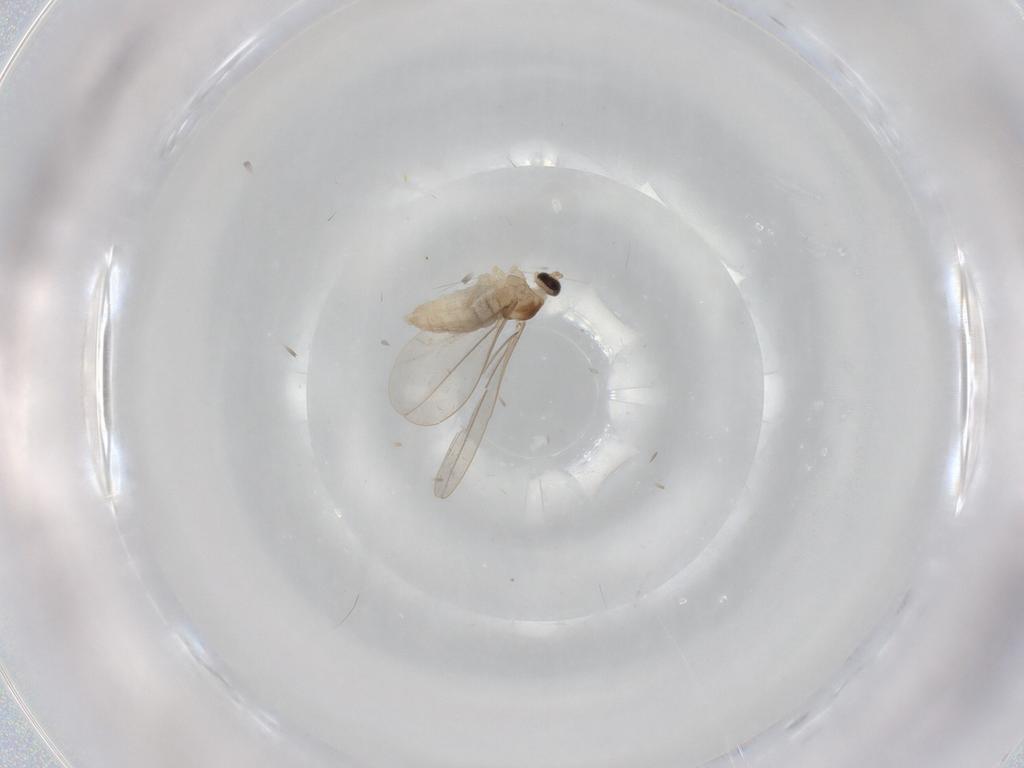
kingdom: Animalia
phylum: Arthropoda
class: Insecta
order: Diptera
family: Cecidomyiidae
